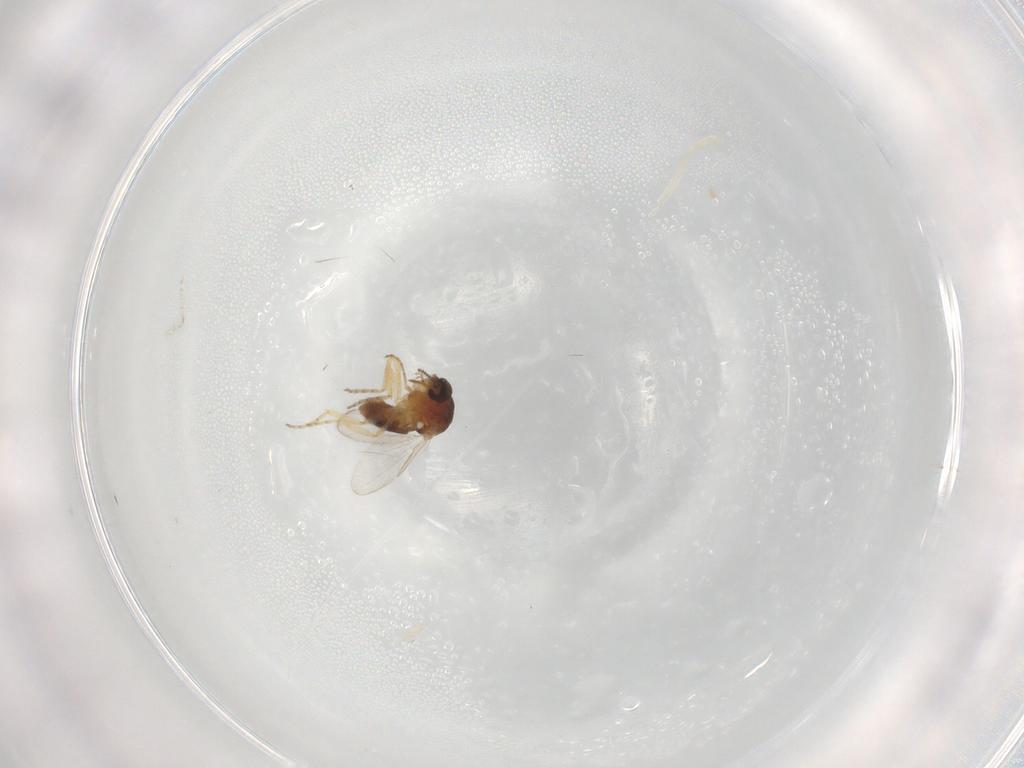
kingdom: Animalia
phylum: Arthropoda
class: Insecta
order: Diptera
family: Ceratopogonidae
